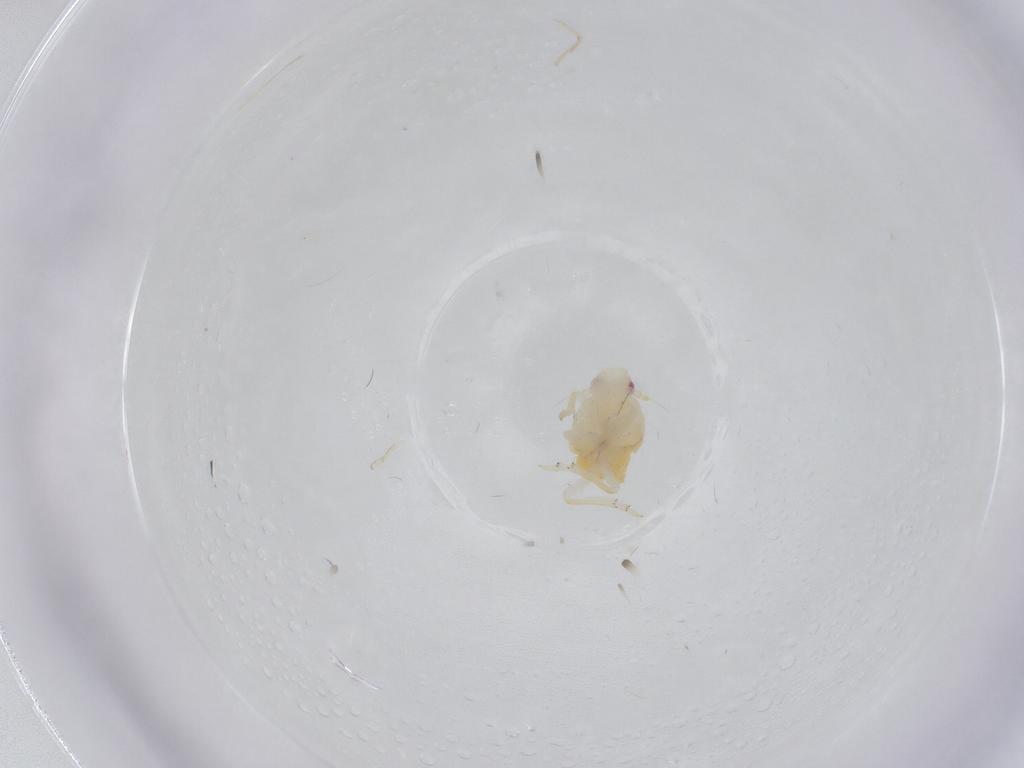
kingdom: Animalia
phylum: Arthropoda
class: Insecta
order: Hemiptera
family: Fulgoroidea_incertae_sedis
